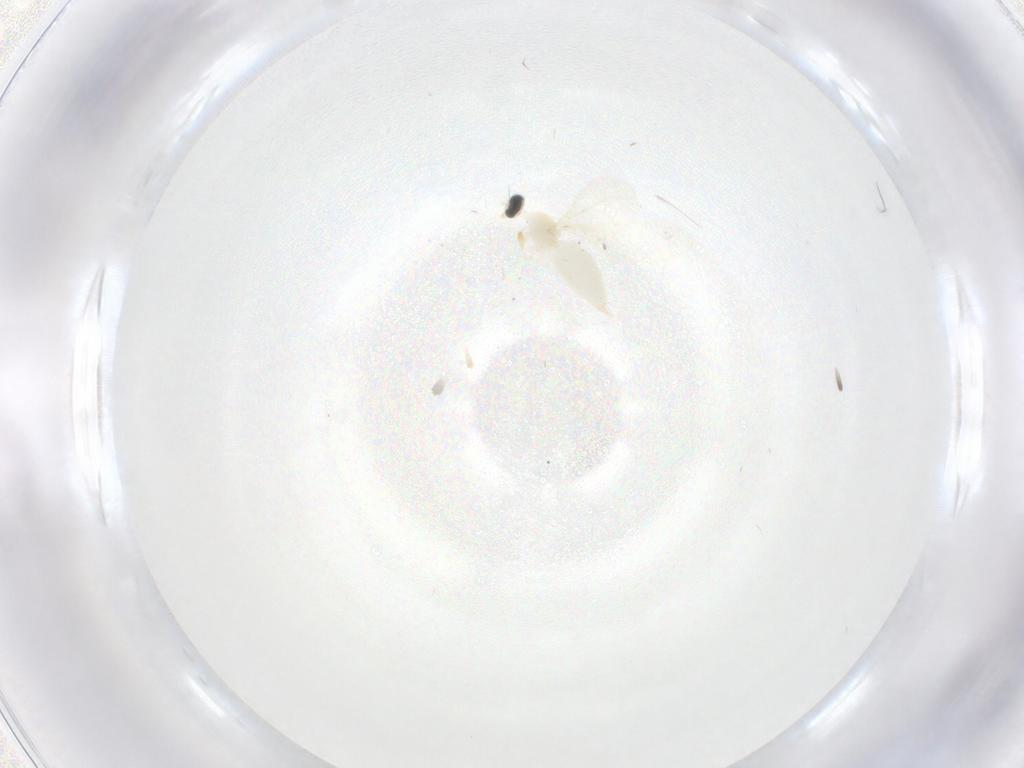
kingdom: Animalia
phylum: Arthropoda
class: Insecta
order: Diptera
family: Cecidomyiidae
